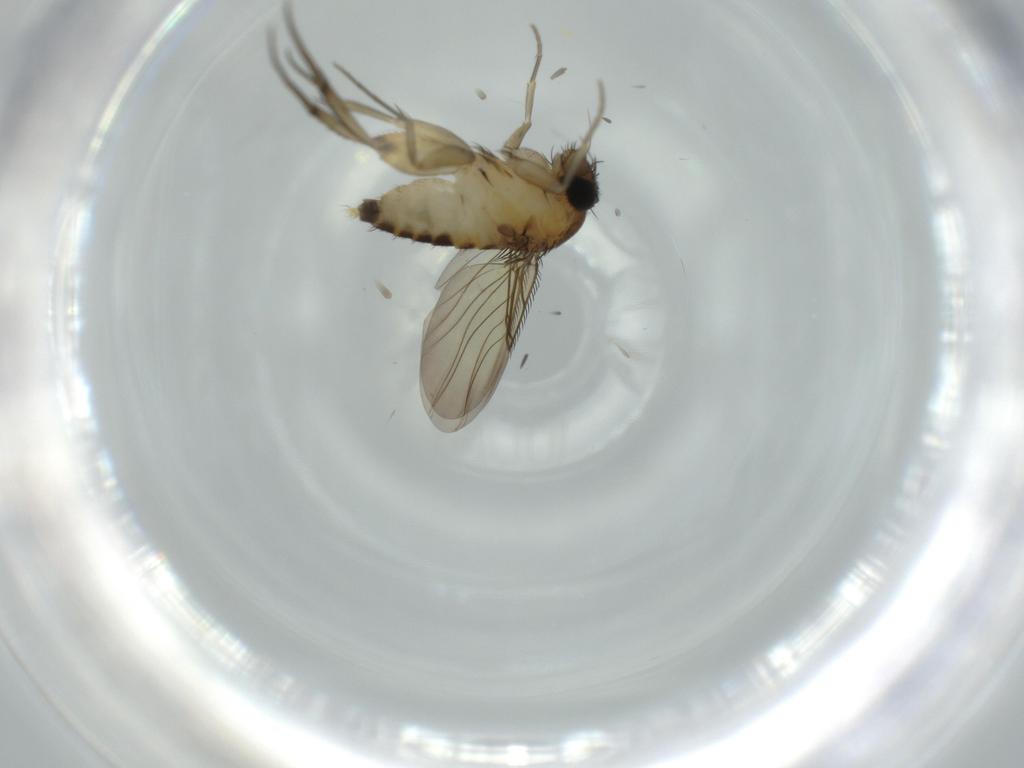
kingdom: Animalia
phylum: Arthropoda
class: Insecta
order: Diptera
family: Phoridae
